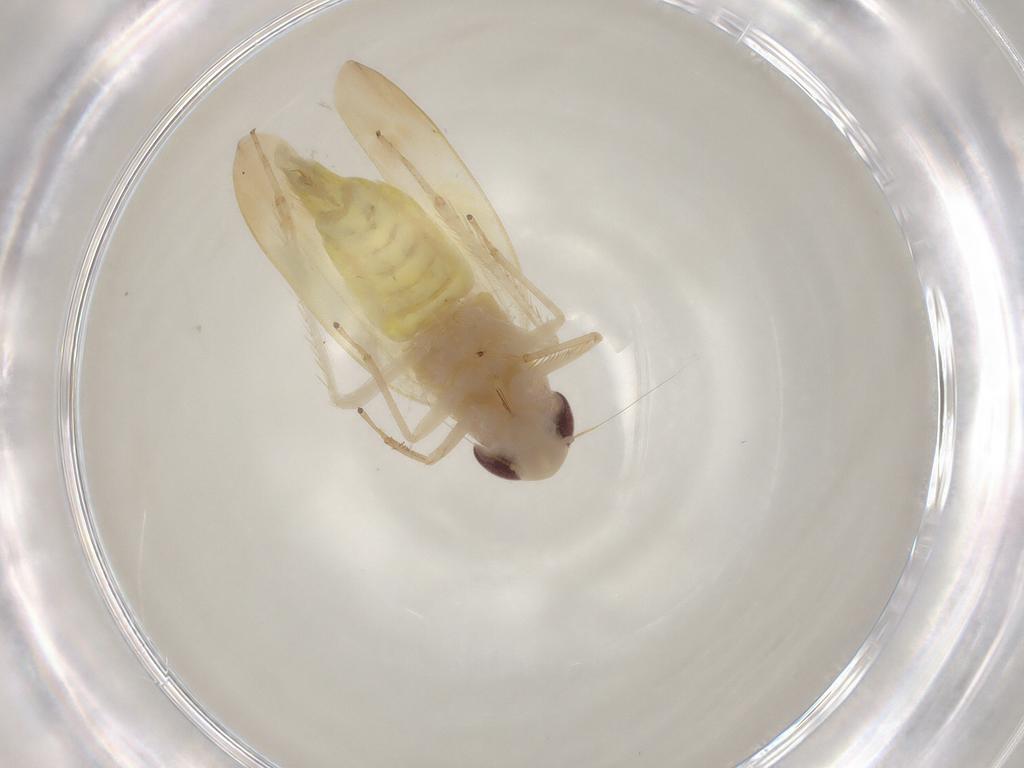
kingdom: Animalia
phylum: Arthropoda
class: Insecta
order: Hemiptera
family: Cicadellidae
